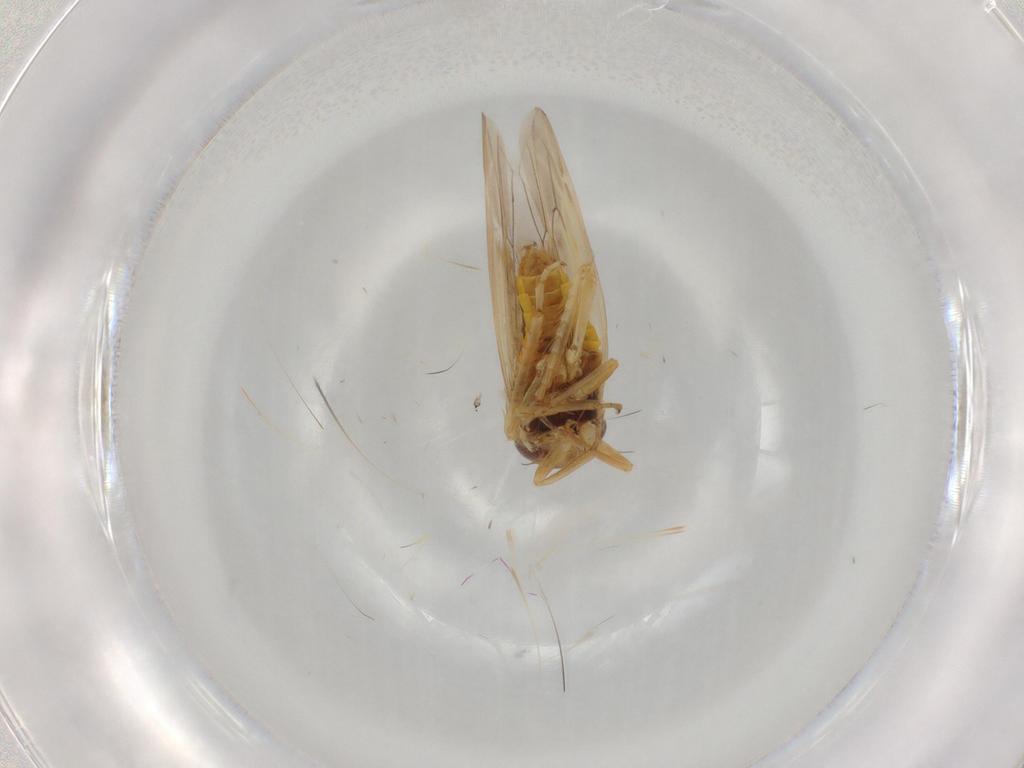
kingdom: Animalia
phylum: Arthropoda
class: Insecta
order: Hemiptera
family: Cicadellidae
